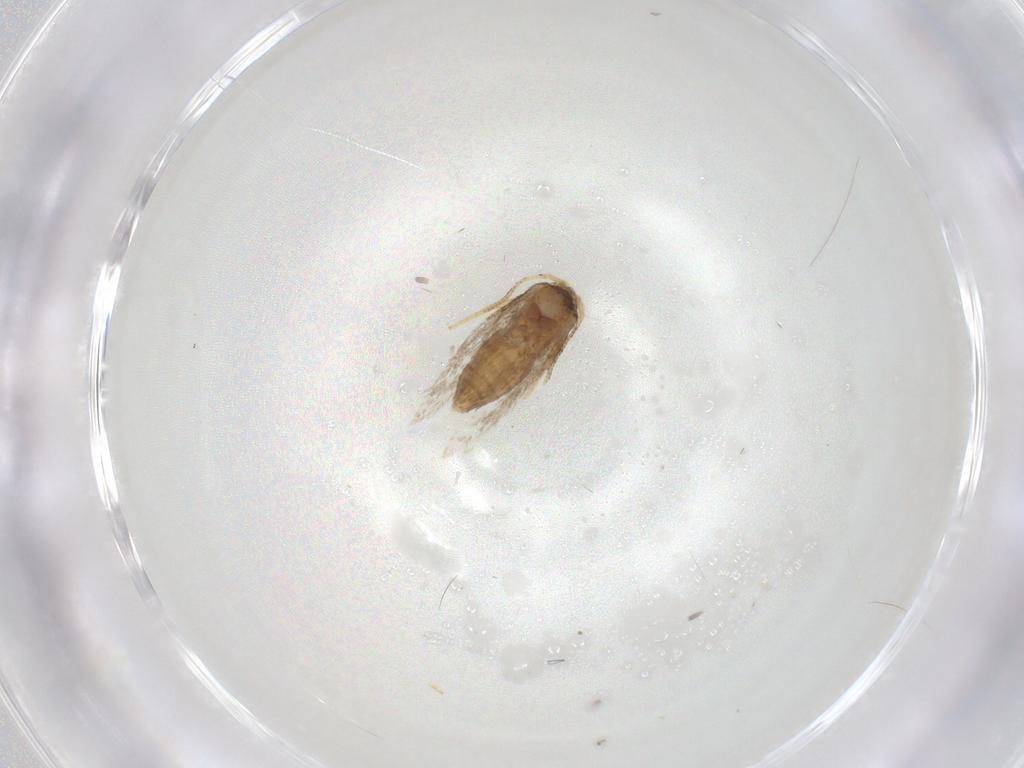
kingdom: Animalia
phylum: Arthropoda
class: Insecta
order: Lepidoptera
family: Nepticulidae
